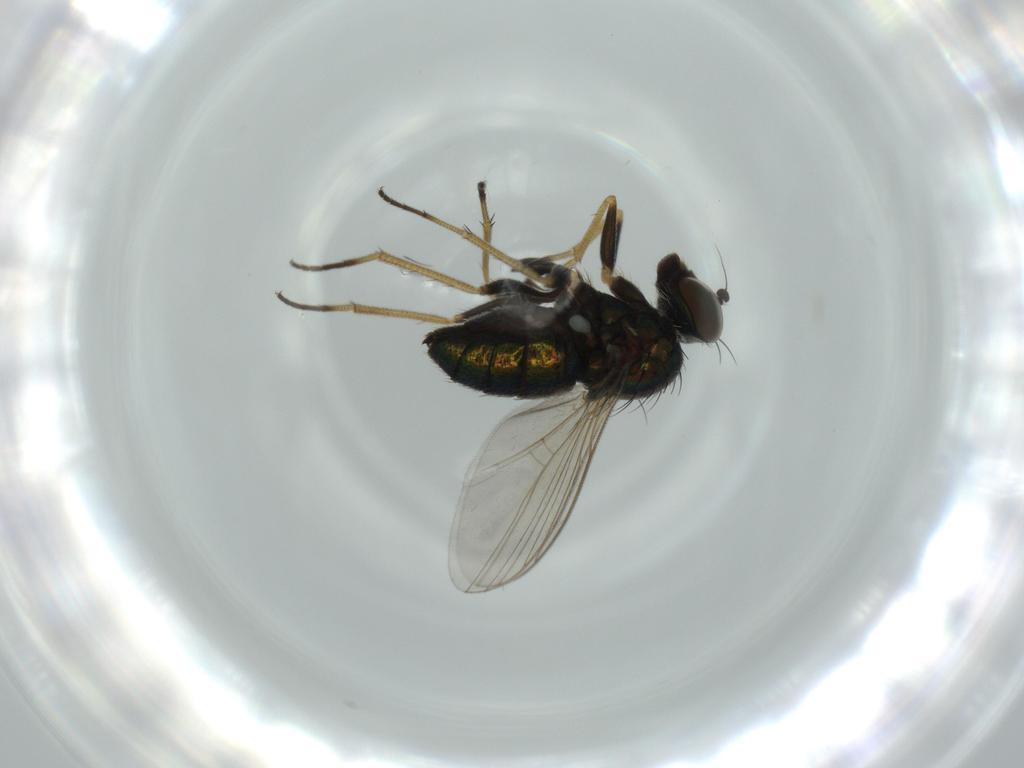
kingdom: Animalia
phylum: Arthropoda
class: Insecta
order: Diptera
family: Dolichopodidae
